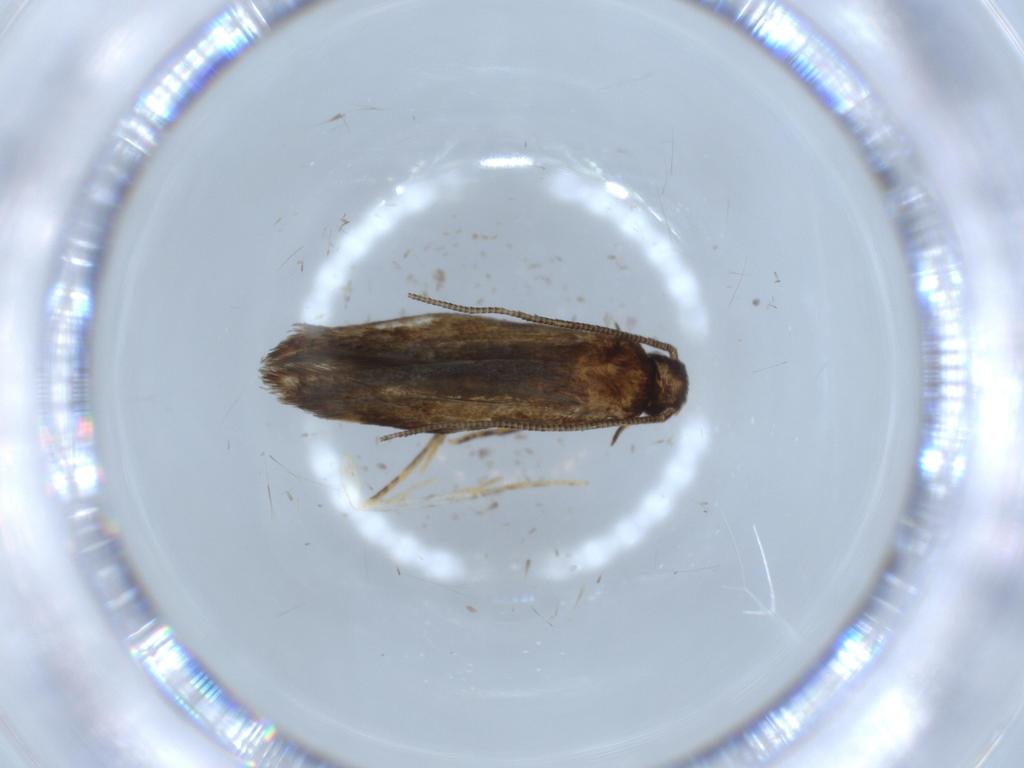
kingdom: Animalia
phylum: Arthropoda
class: Insecta
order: Lepidoptera
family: Tineidae
